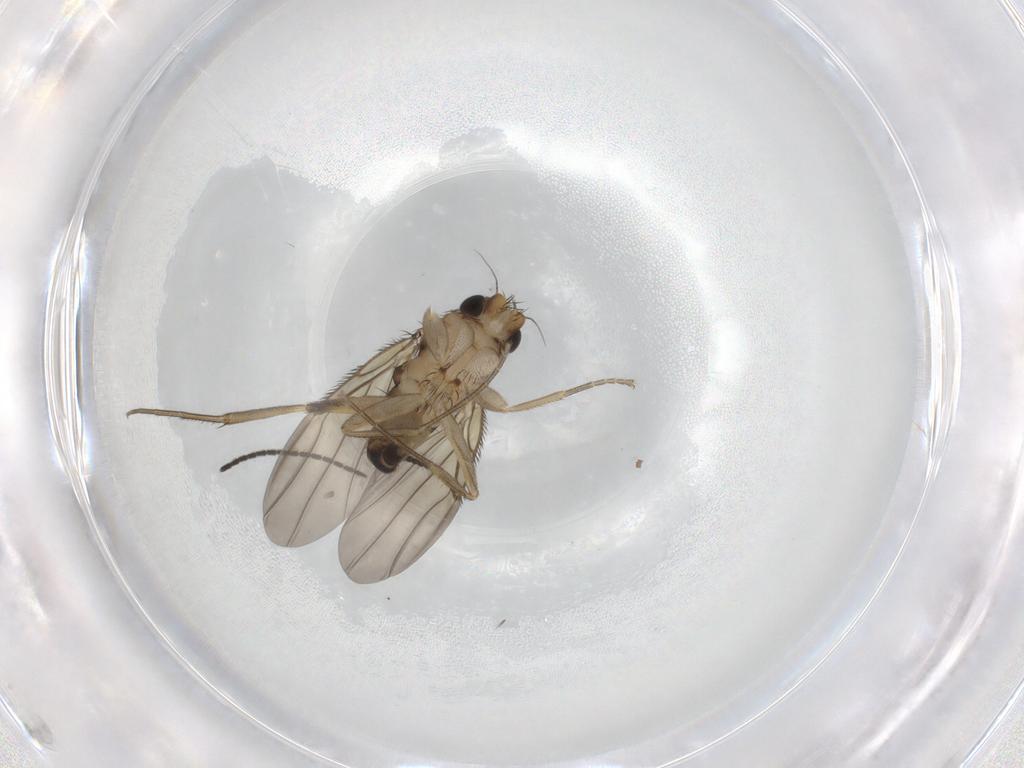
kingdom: Animalia
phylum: Arthropoda
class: Insecta
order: Diptera
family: Phoridae
